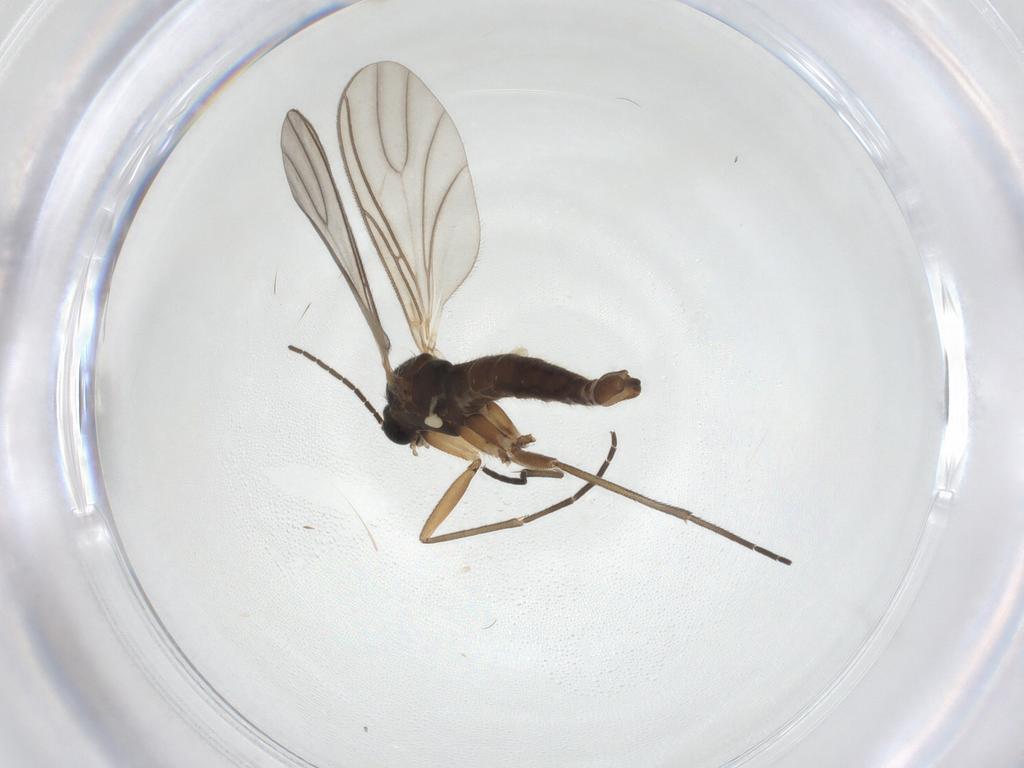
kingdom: Animalia
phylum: Arthropoda
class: Insecta
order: Diptera
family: Sciaridae
